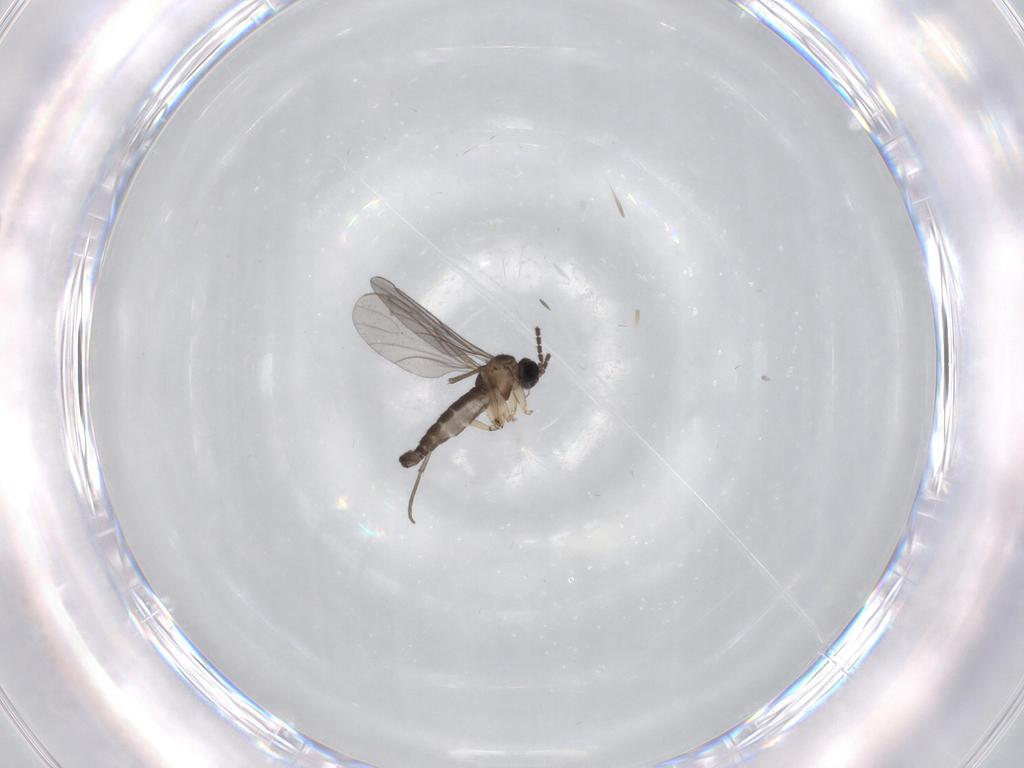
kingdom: Animalia
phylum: Arthropoda
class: Insecta
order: Diptera
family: Sciaridae
